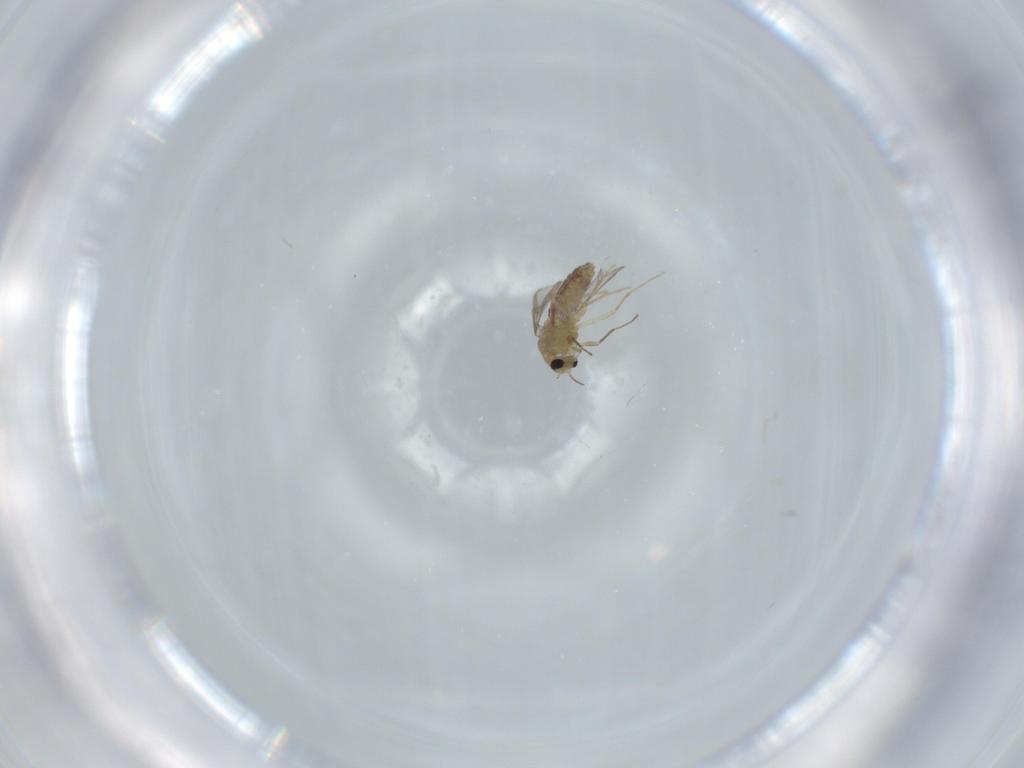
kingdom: Animalia
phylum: Arthropoda
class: Insecta
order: Diptera
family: Chironomidae
